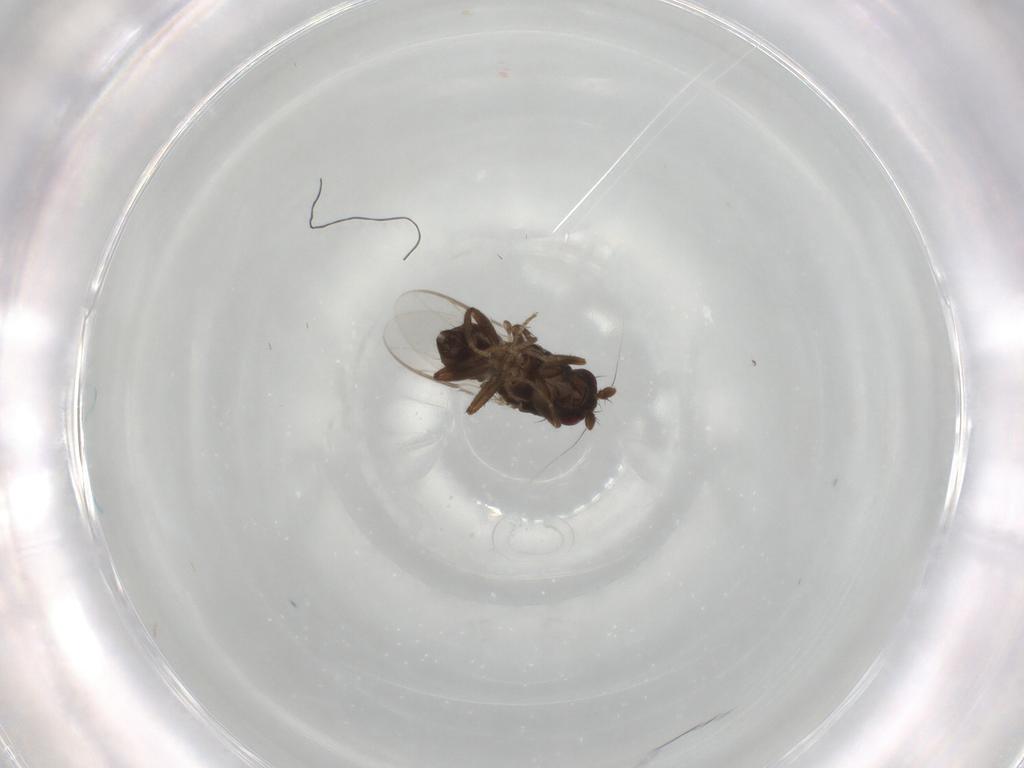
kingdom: Animalia
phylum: Arthropoda
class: Insecta
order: Diptera
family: Sphaeroceridae
